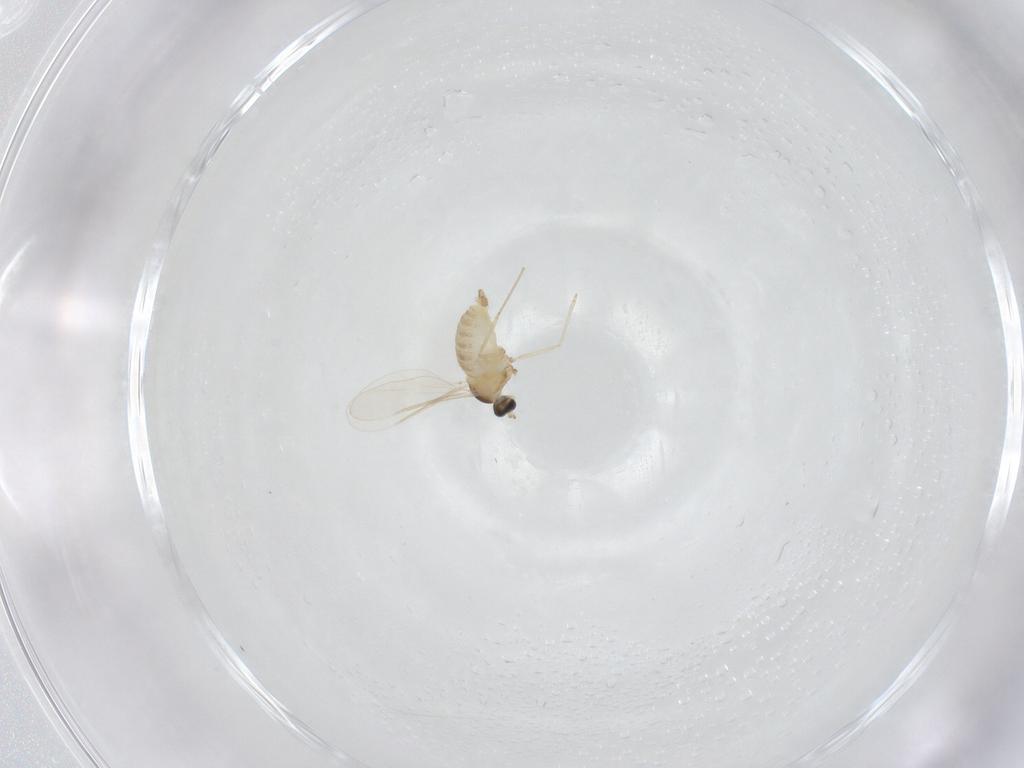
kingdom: Animalia
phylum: Arthropoda
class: Insecta
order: Diptera
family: Cecidomyiidae
